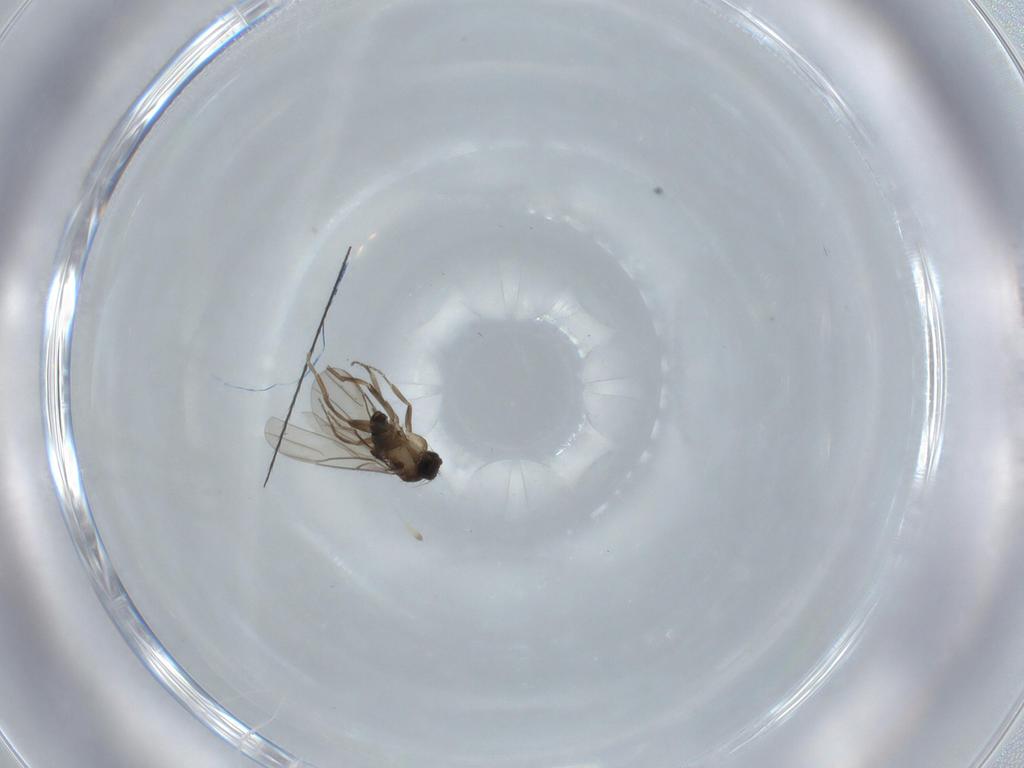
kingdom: Animalia
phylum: Arthropoda
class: Insecta
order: Diptera
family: Phoridae
